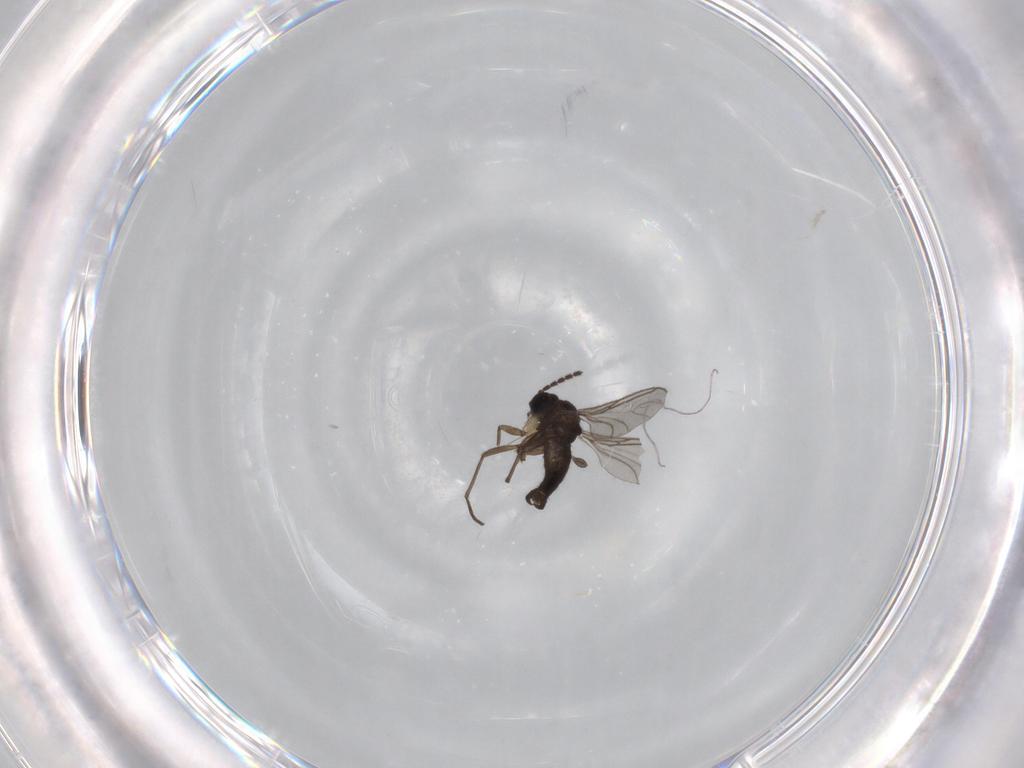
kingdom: Animalia
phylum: Arthropoda
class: Insecta
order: Diptera
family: Sciaridae
